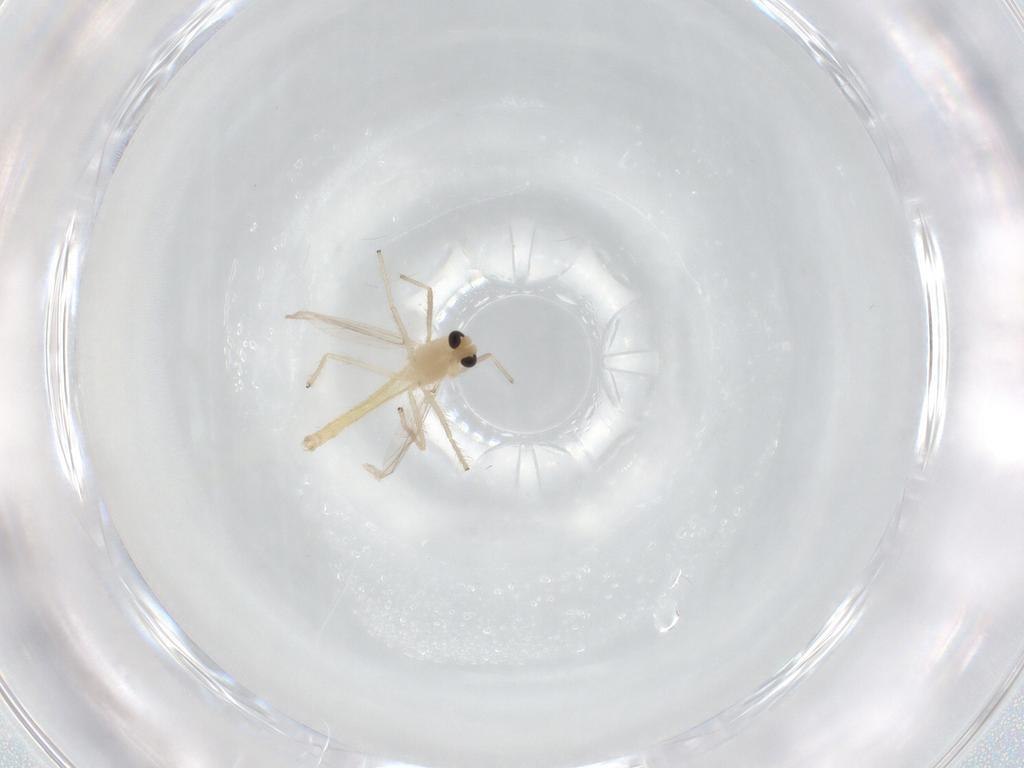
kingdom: Animalia
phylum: Arthropoda
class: Insecta
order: Diptera
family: Chironomidae
